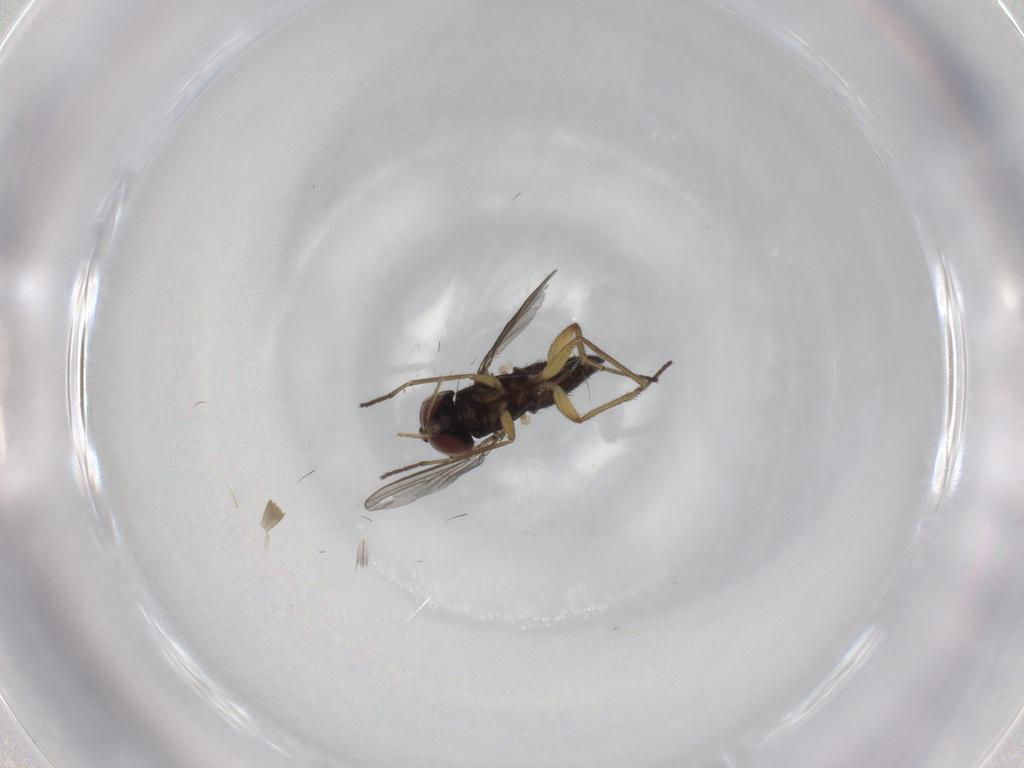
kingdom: Animalia
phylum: Arthropoda
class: Insecta
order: Diptera
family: Dolichopodidae
